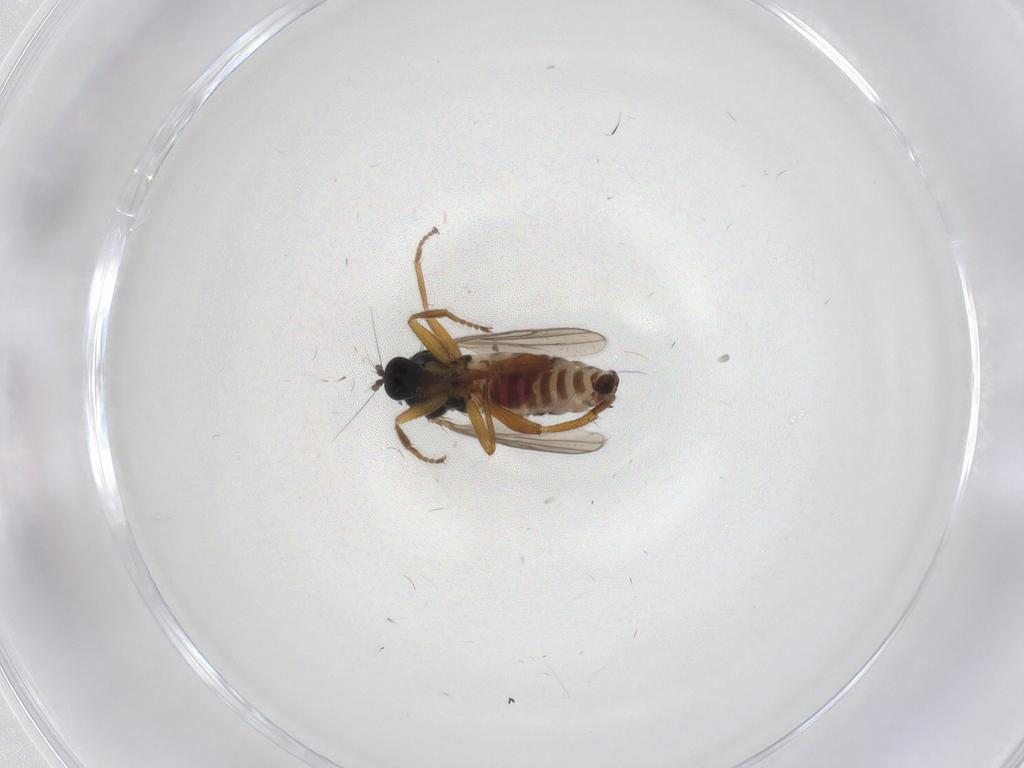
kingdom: Animalia
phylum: Arthropoda
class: Insecta
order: Diptera
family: Hybotidae
